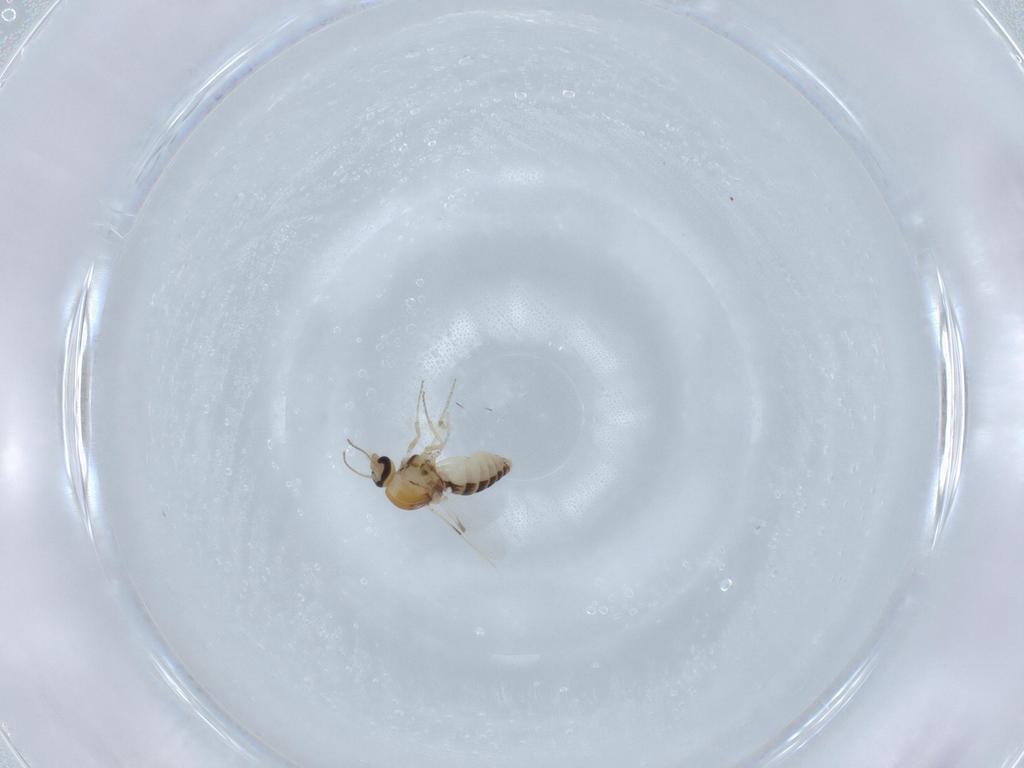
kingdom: Animalia
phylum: Arthropoda
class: Insecta
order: Diptera
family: Ceratopogonidae
